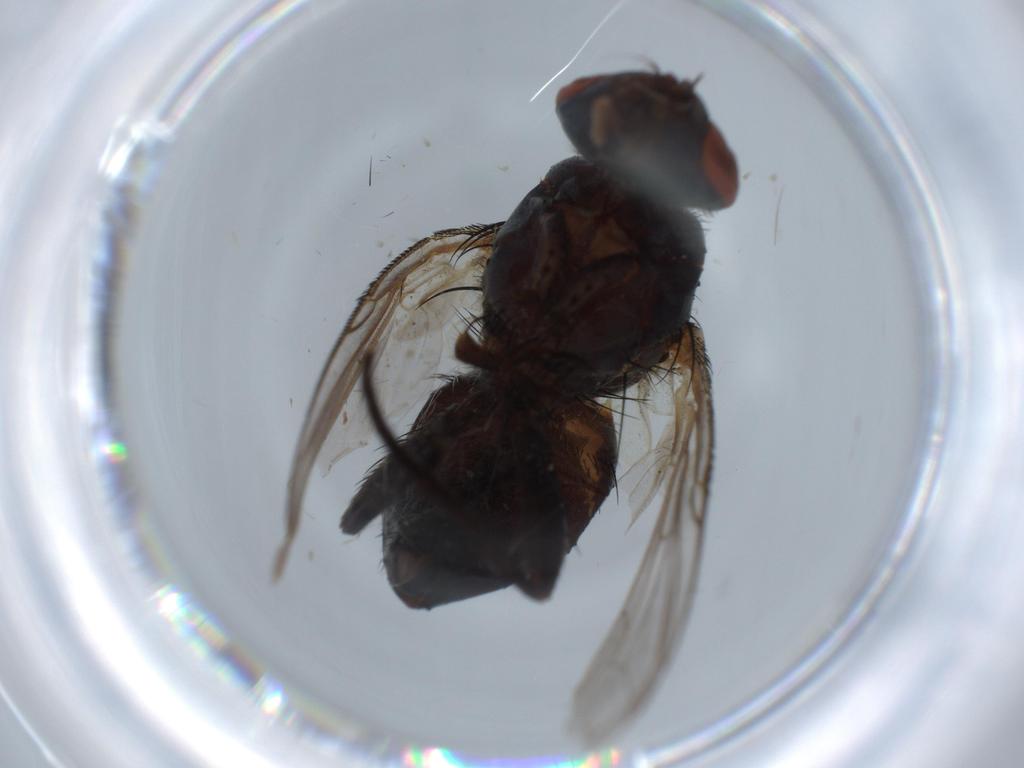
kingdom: Animalia
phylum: Arthropoda
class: Insecta
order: Diptera
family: Sarcophagidae
